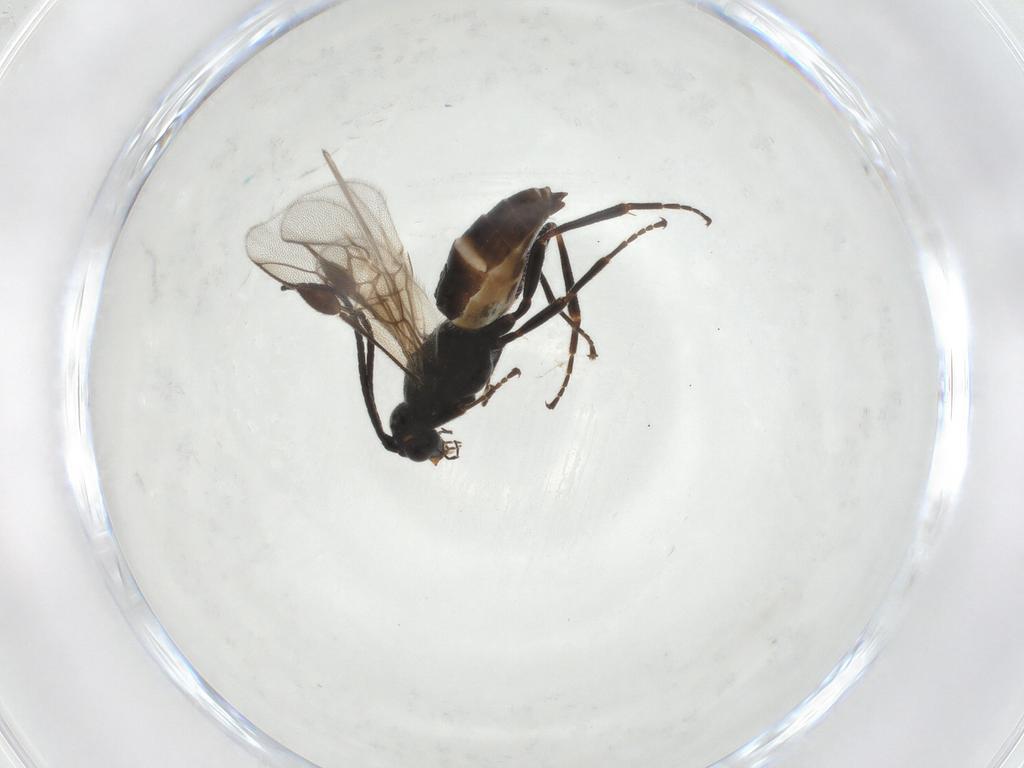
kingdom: Animalia
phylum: Arthropoda
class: Insecta
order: Hymenoptera
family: Braconidae
